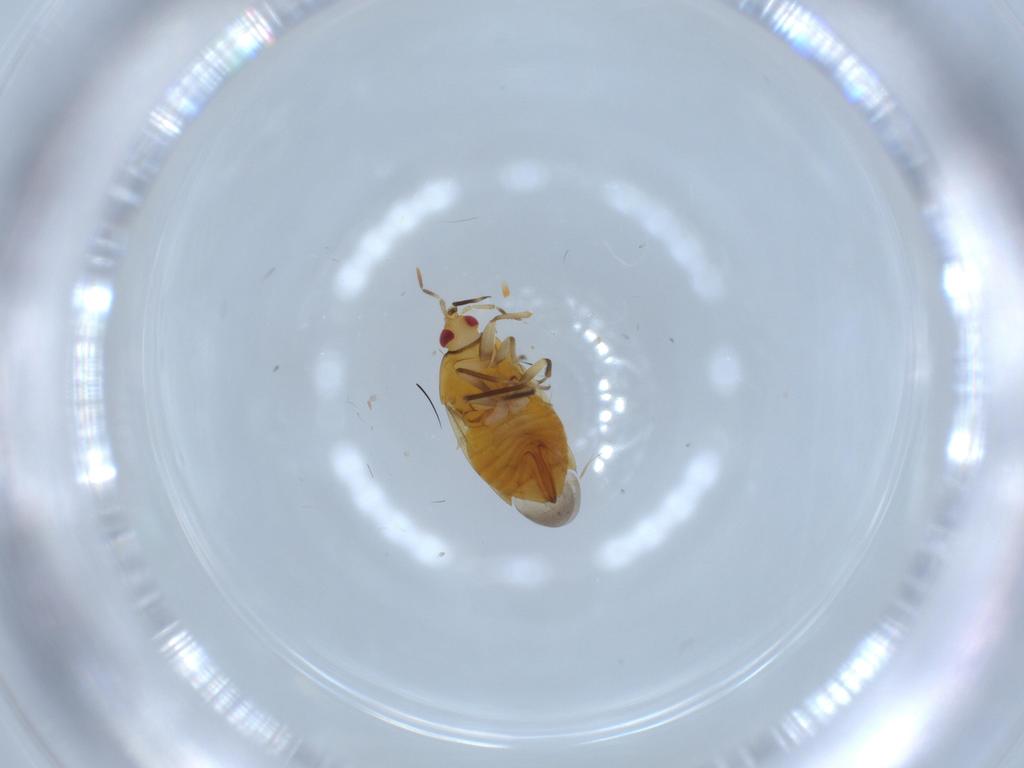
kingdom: Animalia
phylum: Arthropoda
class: Insecta
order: Hemiptera
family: Anthocoridae
